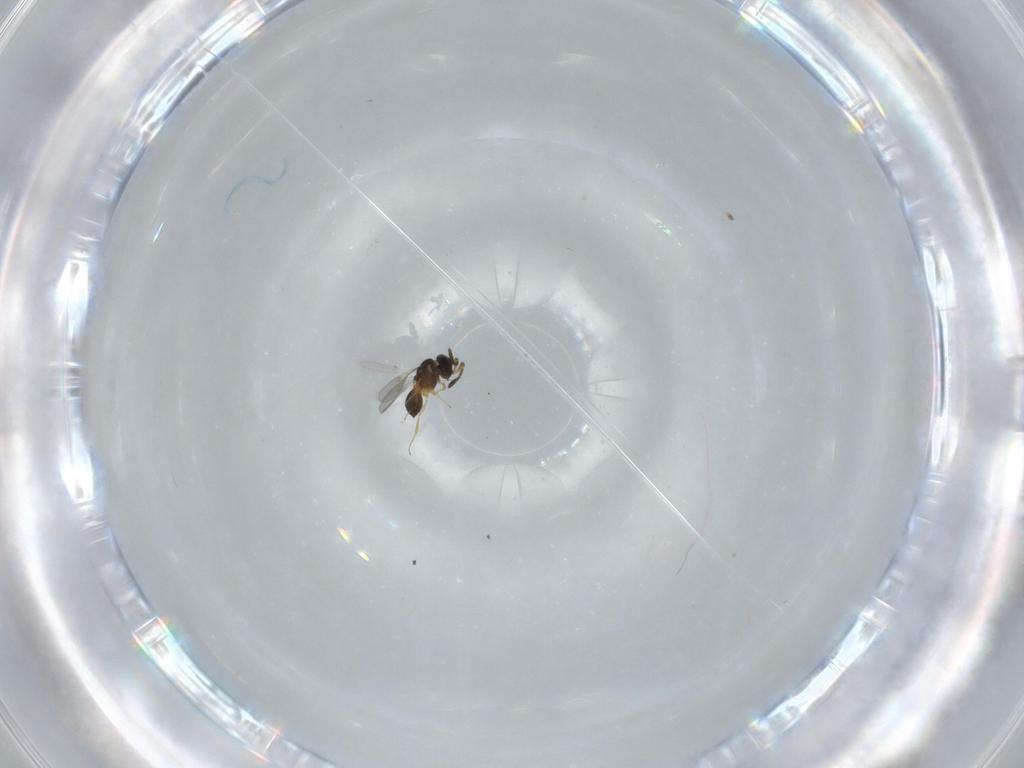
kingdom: Animalia
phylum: Arthropoda
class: Insecta
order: Hymenoptera
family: Scelionidae
